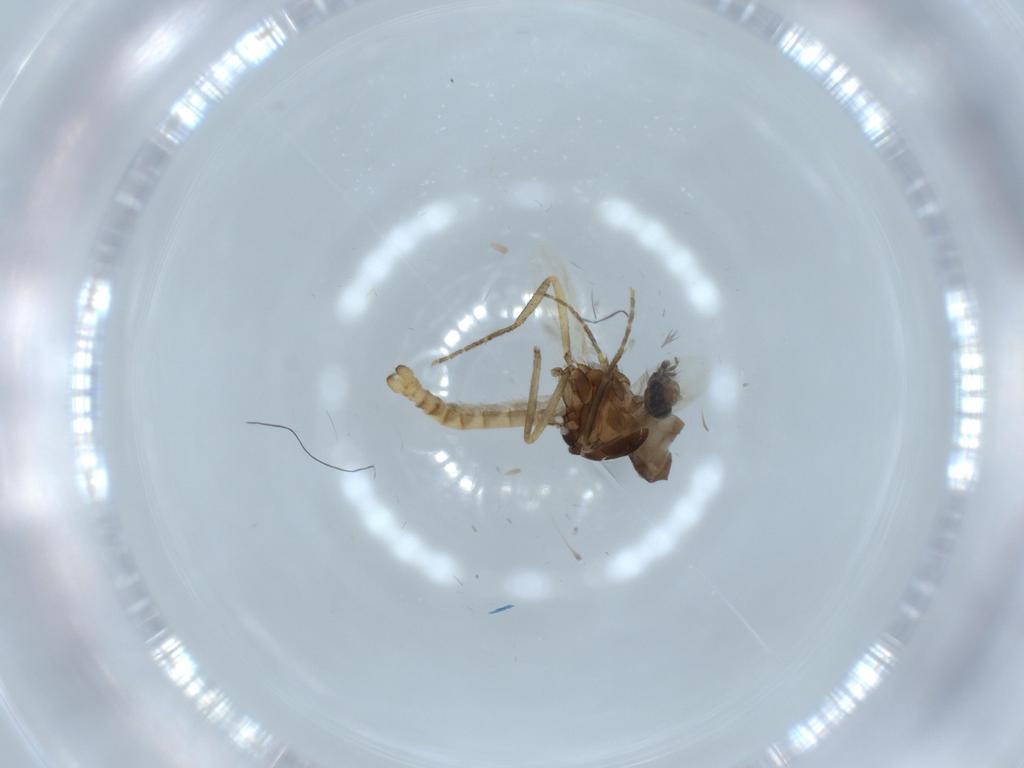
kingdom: Animalia
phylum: Arthropoda
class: Insecta
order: Diptera
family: Ceratopogonidae
